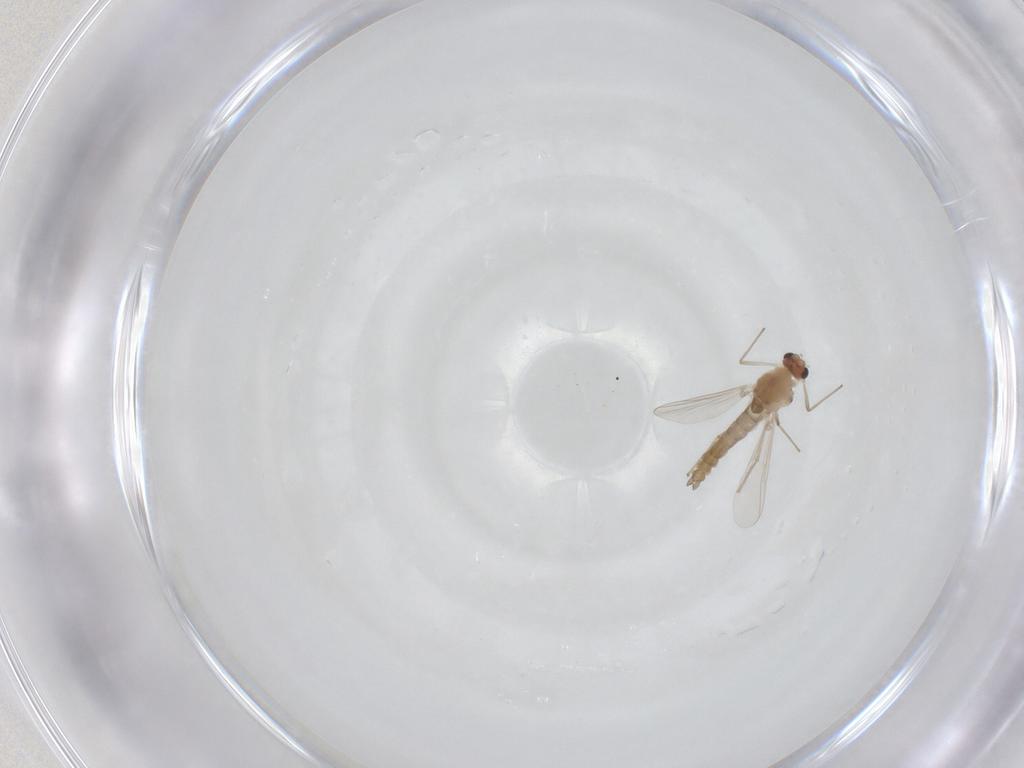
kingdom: Animalia
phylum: Arthropoda
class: Insecta
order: Diptera
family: Chironomidae
